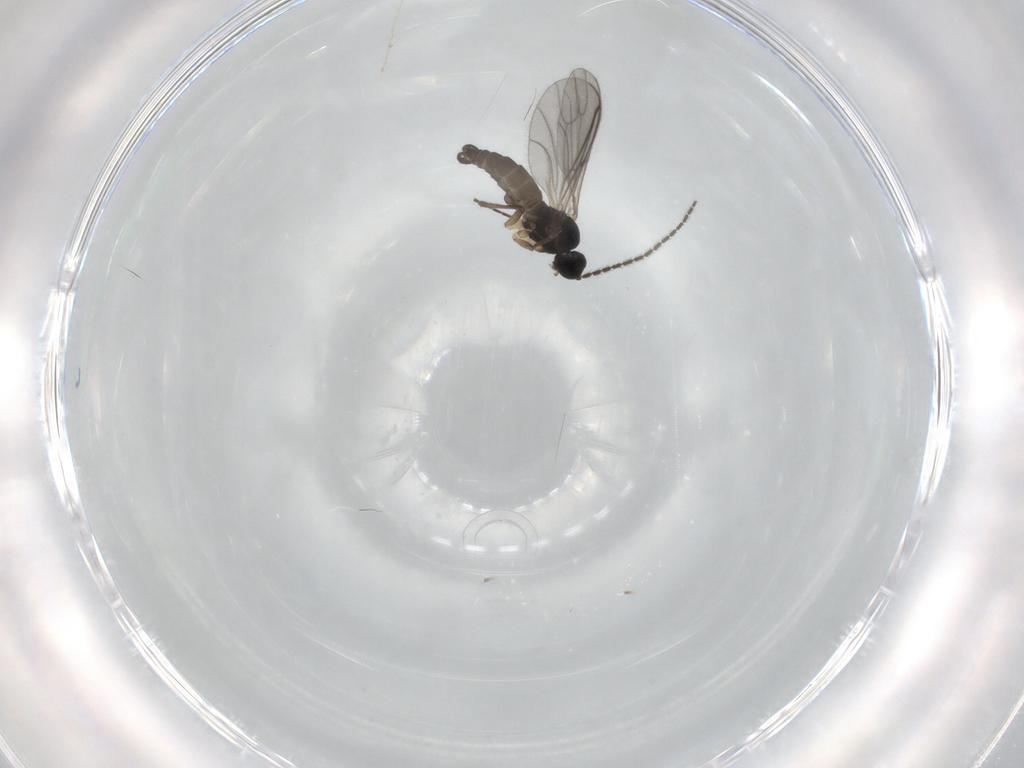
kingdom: Animalia
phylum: Arthropoda
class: Insecta
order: Diptera
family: Sciaridae
